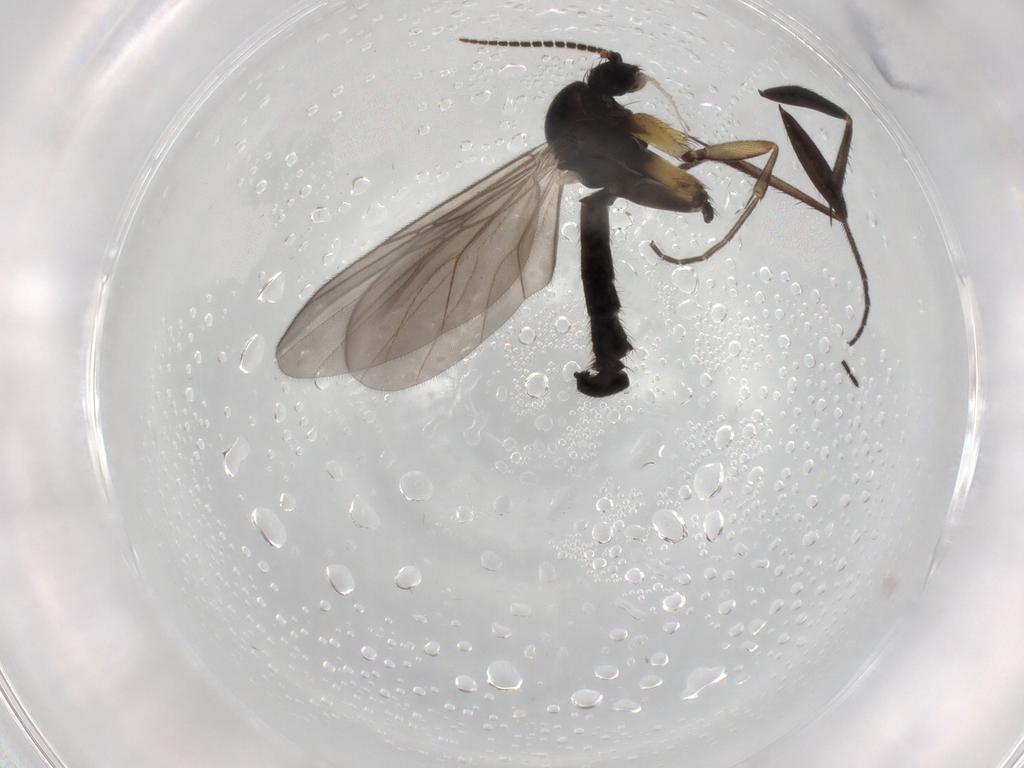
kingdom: Animalia
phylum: Arthropoda
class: Insecta
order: Diptera
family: Mycetophilidae
